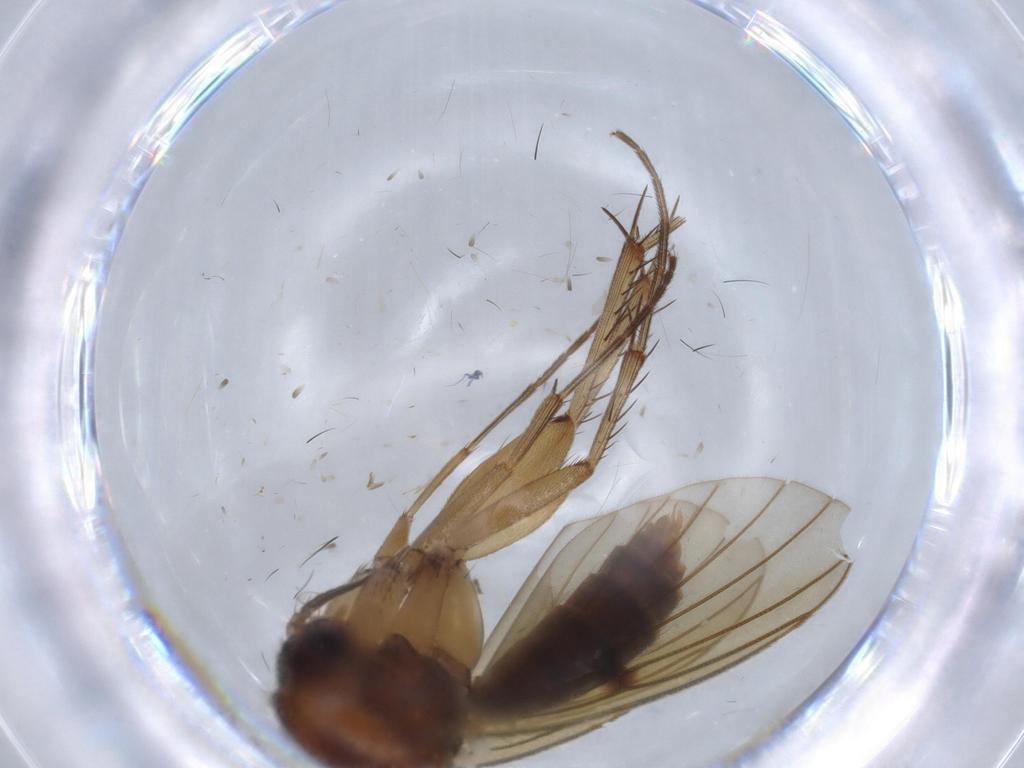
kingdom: Animalia
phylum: Arthropoda
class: Insecta
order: Diptera
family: Mycetophilidae
